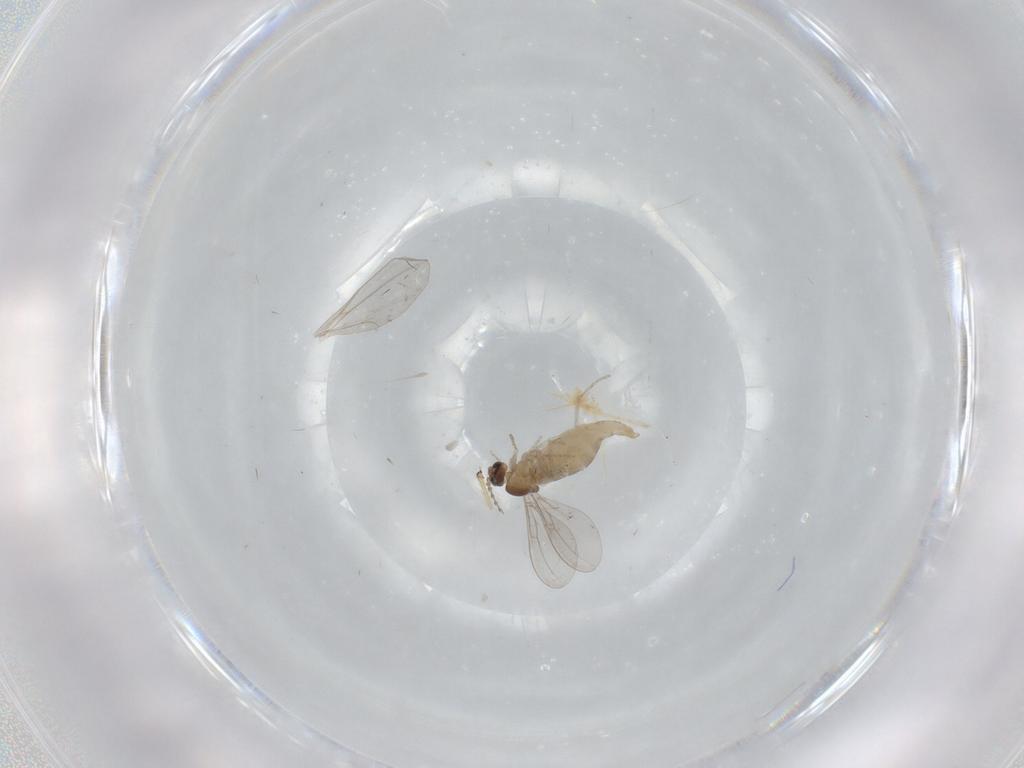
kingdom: Animalia
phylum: Arthropoda
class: Insecta
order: Diptera
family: Cecidomyiidae
